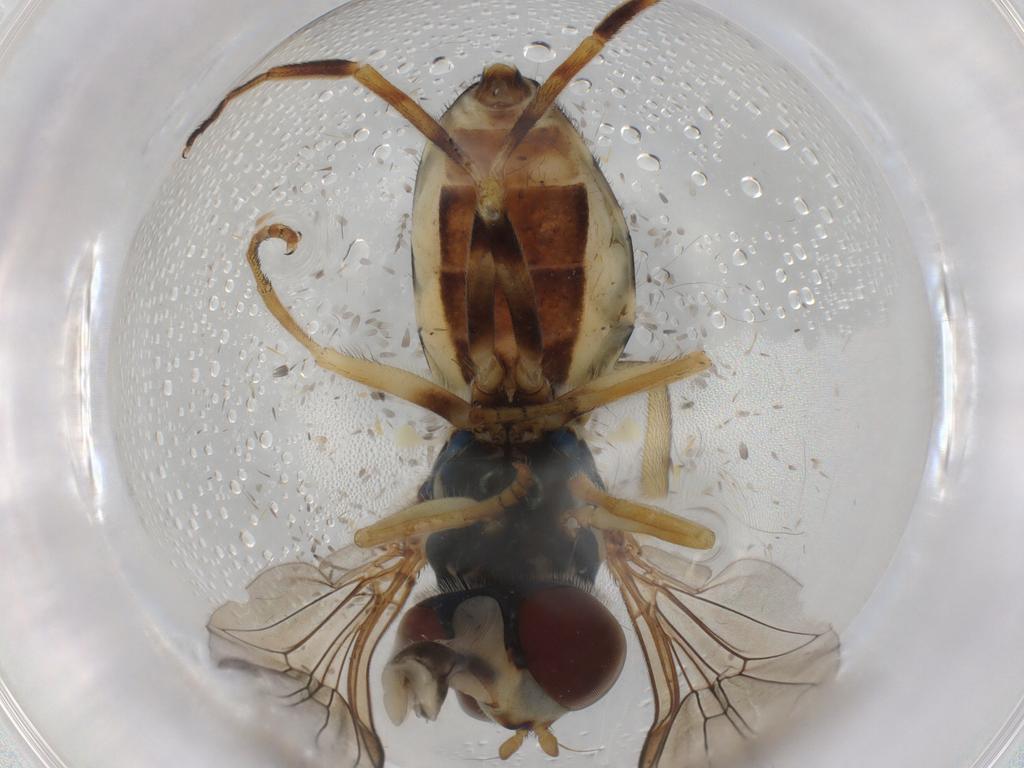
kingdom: Animalia
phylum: Arthropoda
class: Insecta
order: Diptera
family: Syrphidae
